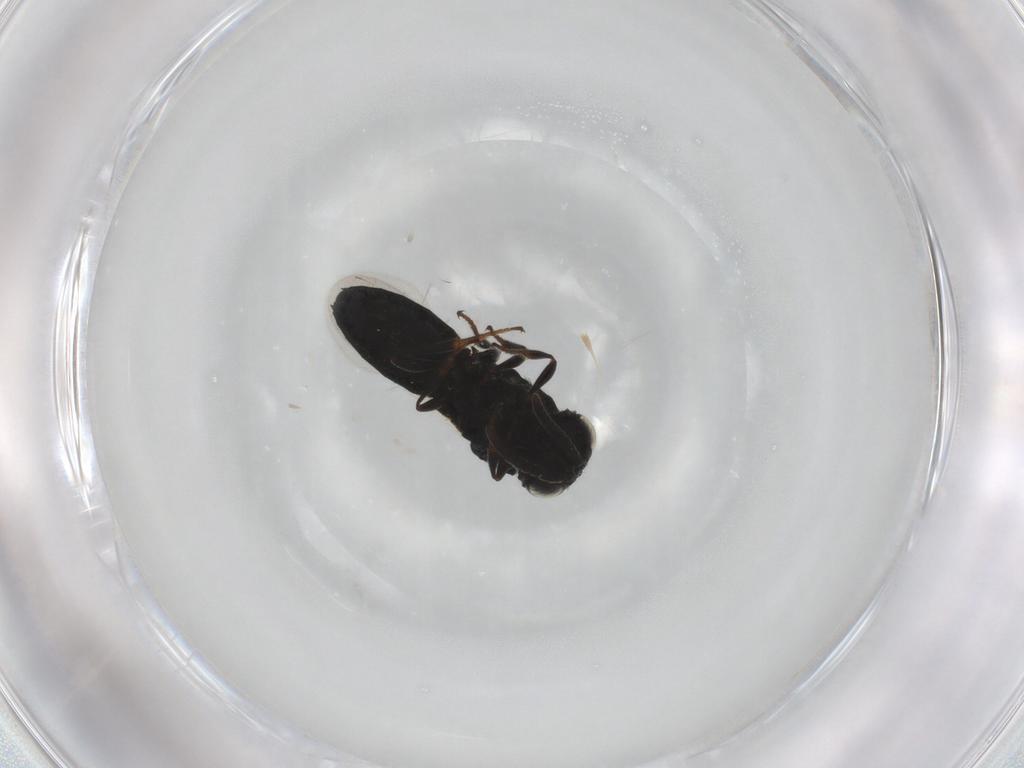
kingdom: Animalia
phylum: Arthropoda
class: Insecta
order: Hymenoptera
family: Scelionidae
